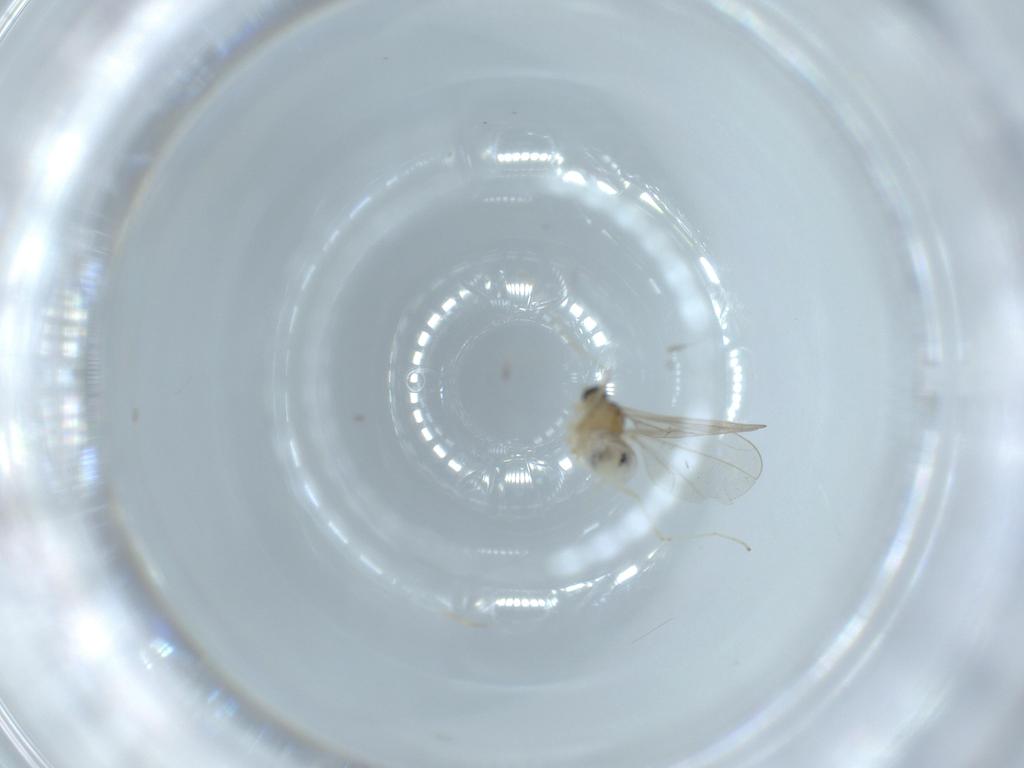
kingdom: Animalia
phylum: Arthropoda
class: Insecta
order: Diptera
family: Cecidomyiidae
